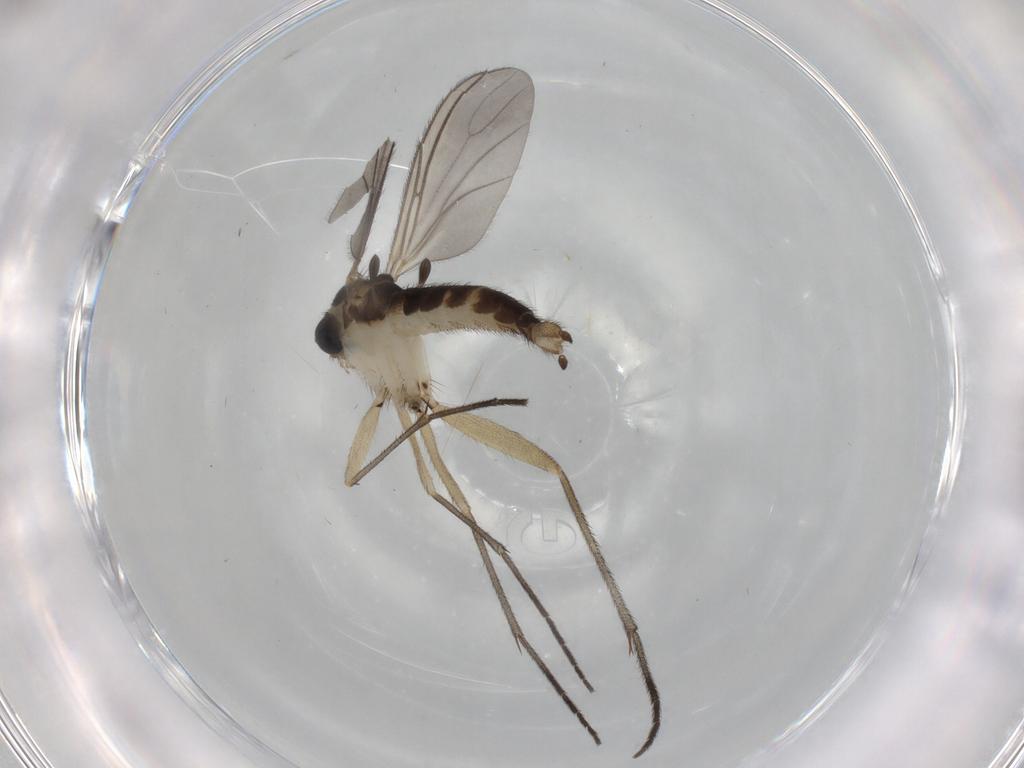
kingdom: Animalia
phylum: Arthropoda
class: Insecta
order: Diptera
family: Sciaridae
